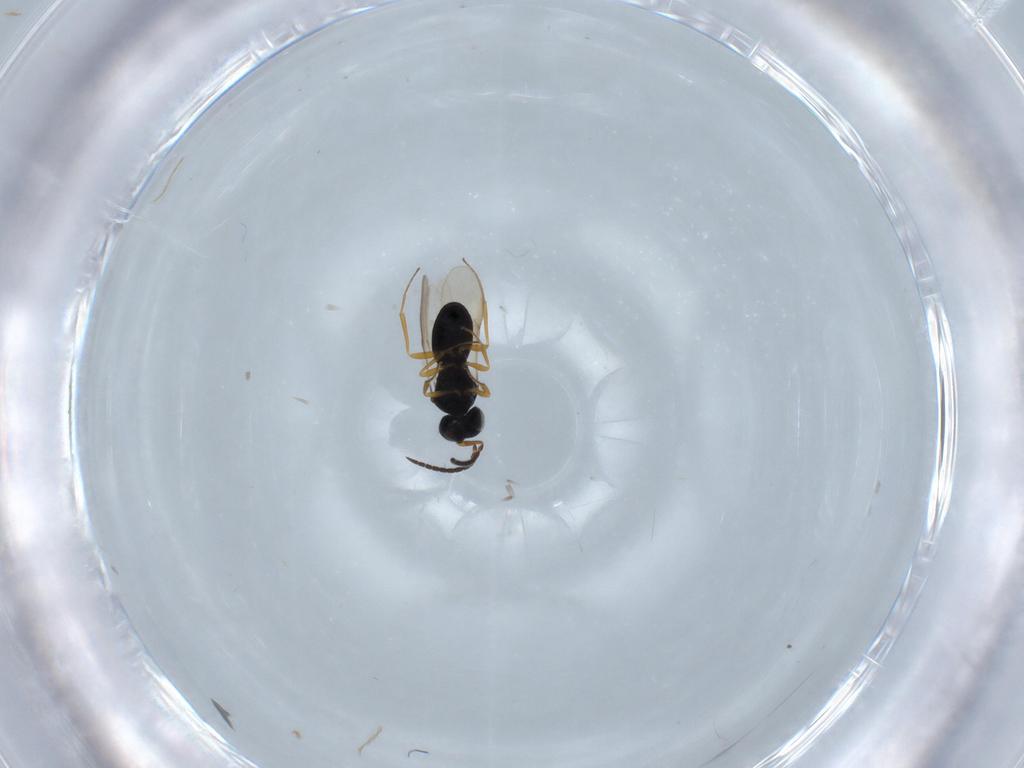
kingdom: Animalia
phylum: Arthropoda
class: Insecta
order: Hymenoptera
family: Scelionidae
